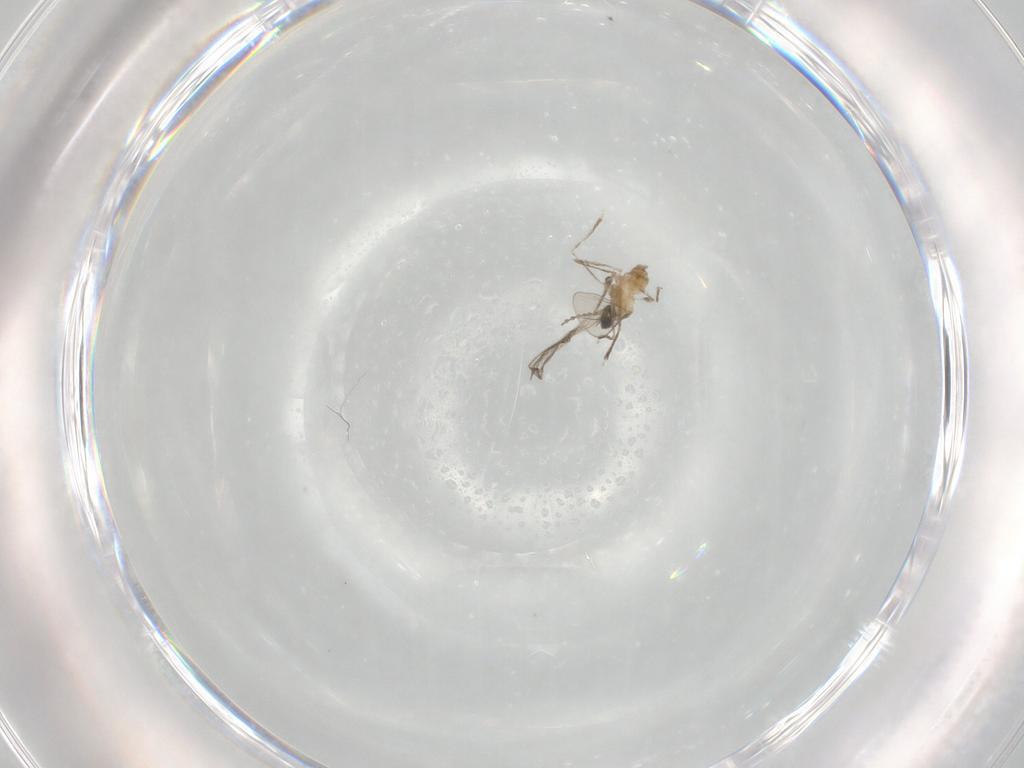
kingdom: Animalia
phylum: Arthropoda
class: Insecta
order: Diptera
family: Cecidomyiidae
